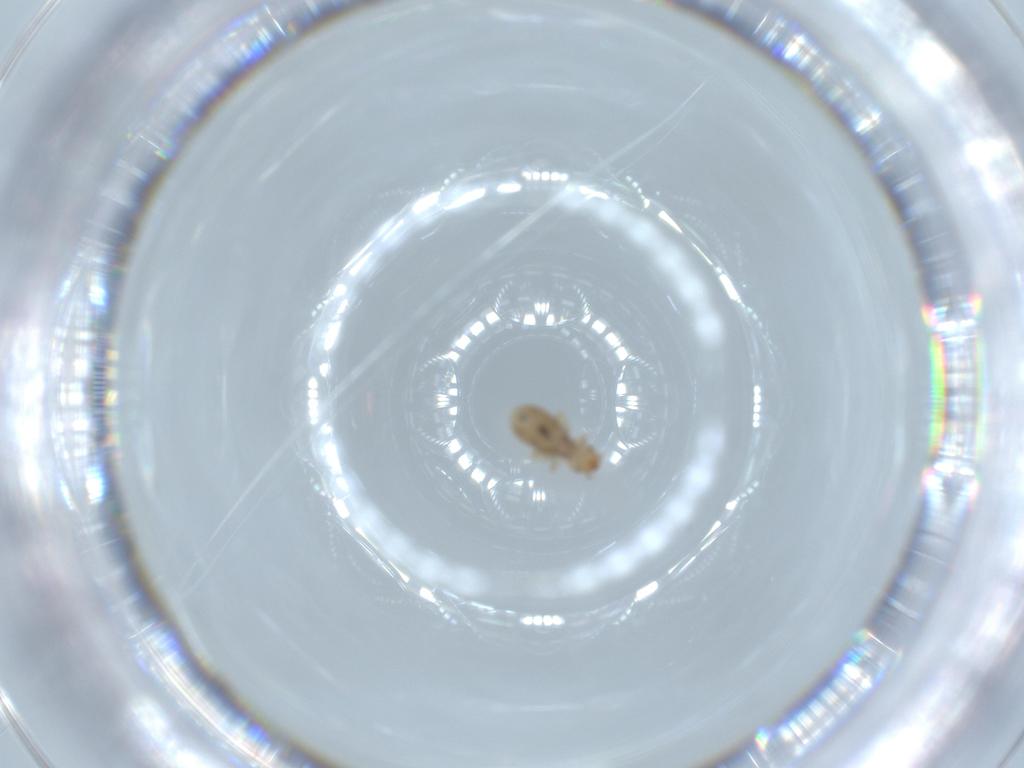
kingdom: Animalia
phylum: Arthropoda
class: Insecta
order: Psocodea
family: Liposcelididae
